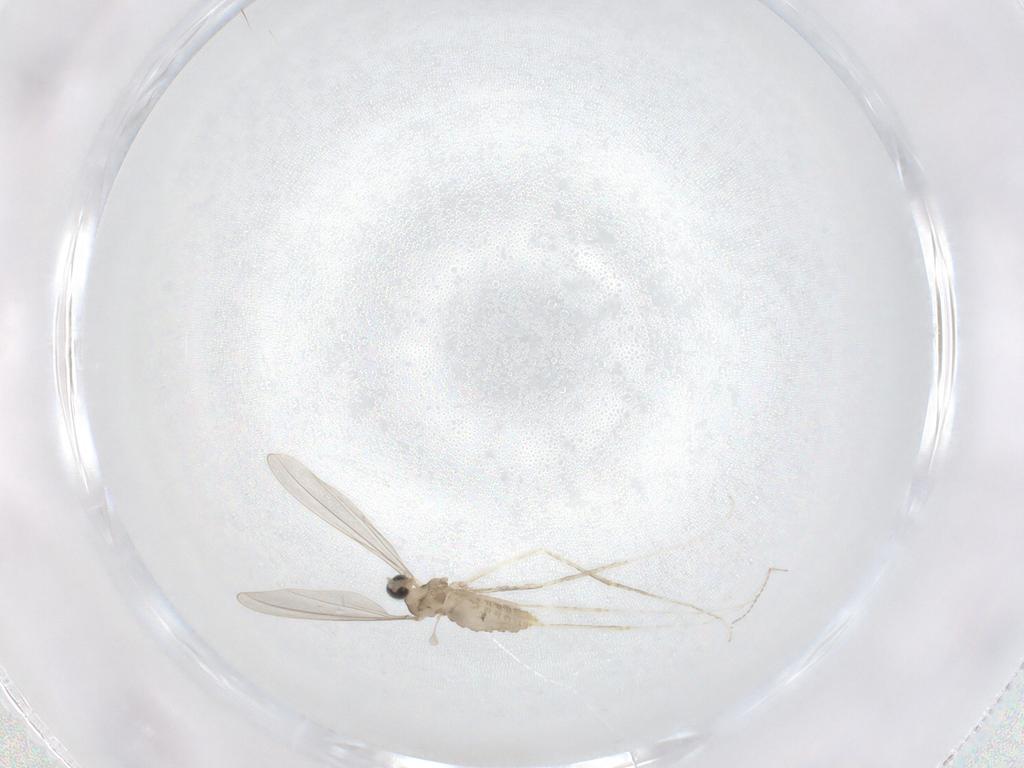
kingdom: Animalia
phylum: Arthropoda
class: Insecta
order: Diptera
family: Cecidomyiidae
